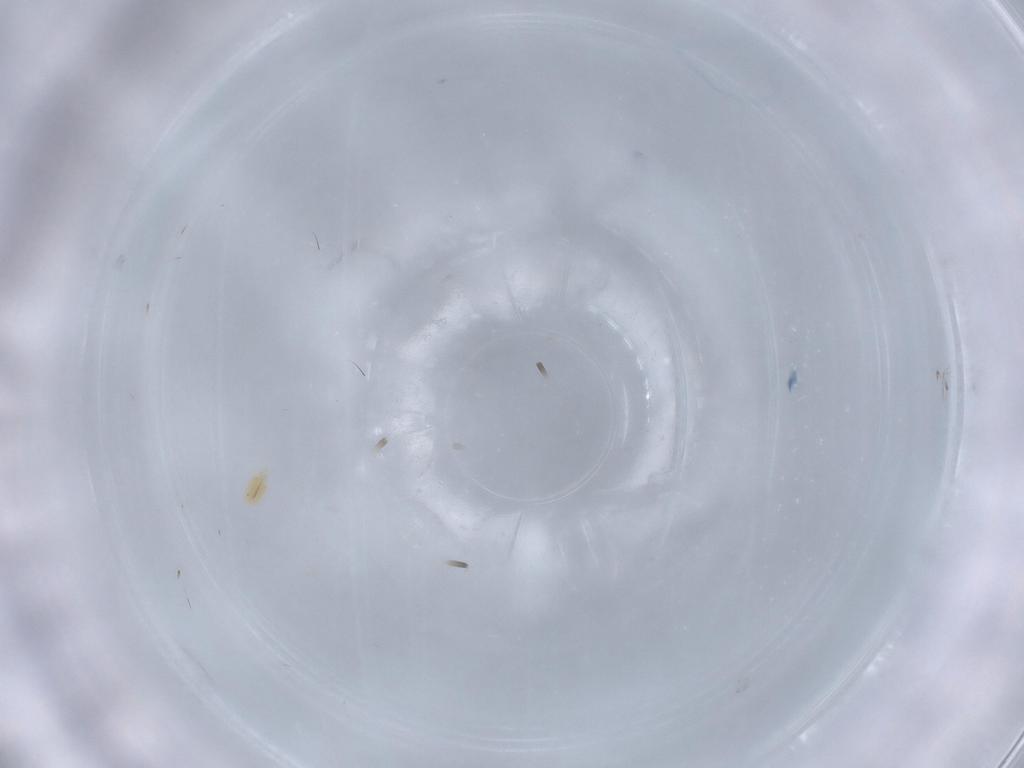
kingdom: Animalia
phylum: Arthropoda
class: Arachnida
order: Trombidiformes
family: Tetranychidae
